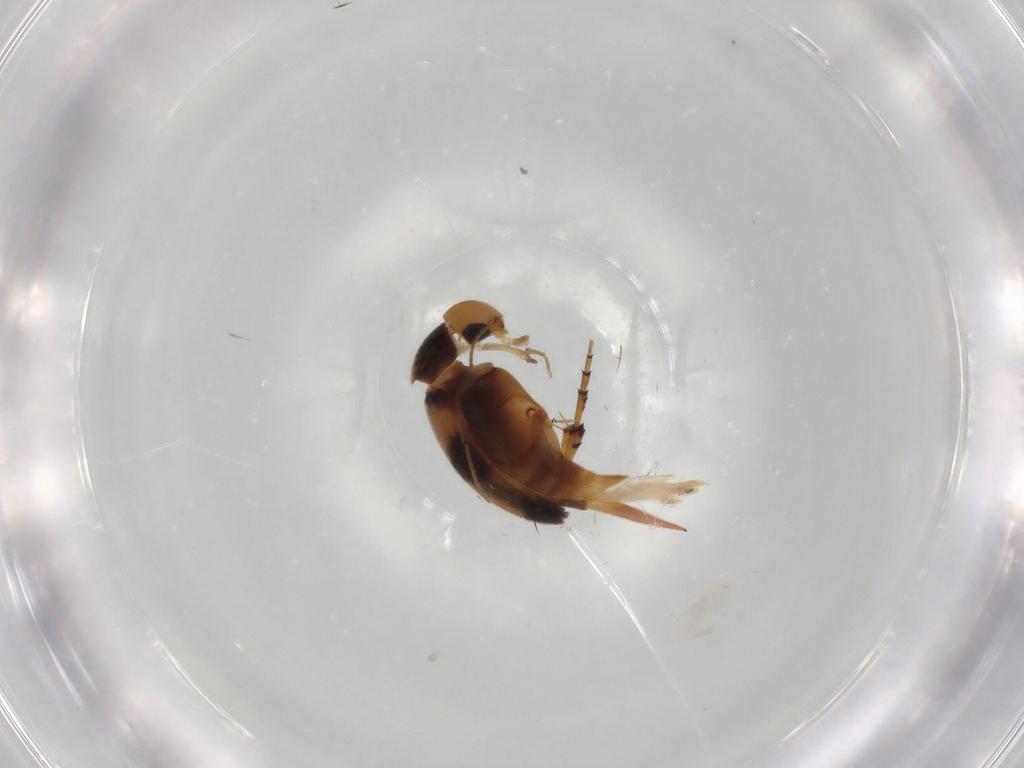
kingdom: Animalia
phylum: Arthropoda
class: Insecta
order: Coleoptera
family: Mordellidae
